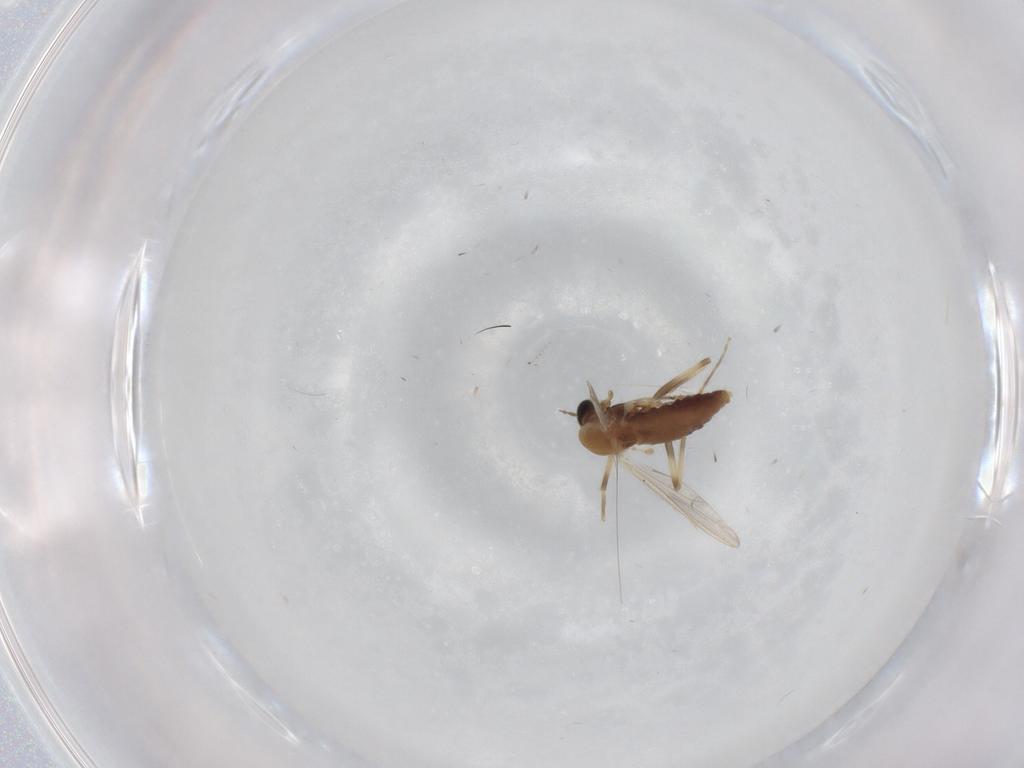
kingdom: Animalia
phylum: Arthropoda
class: Insecta
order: Diptera
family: Chironomidae
